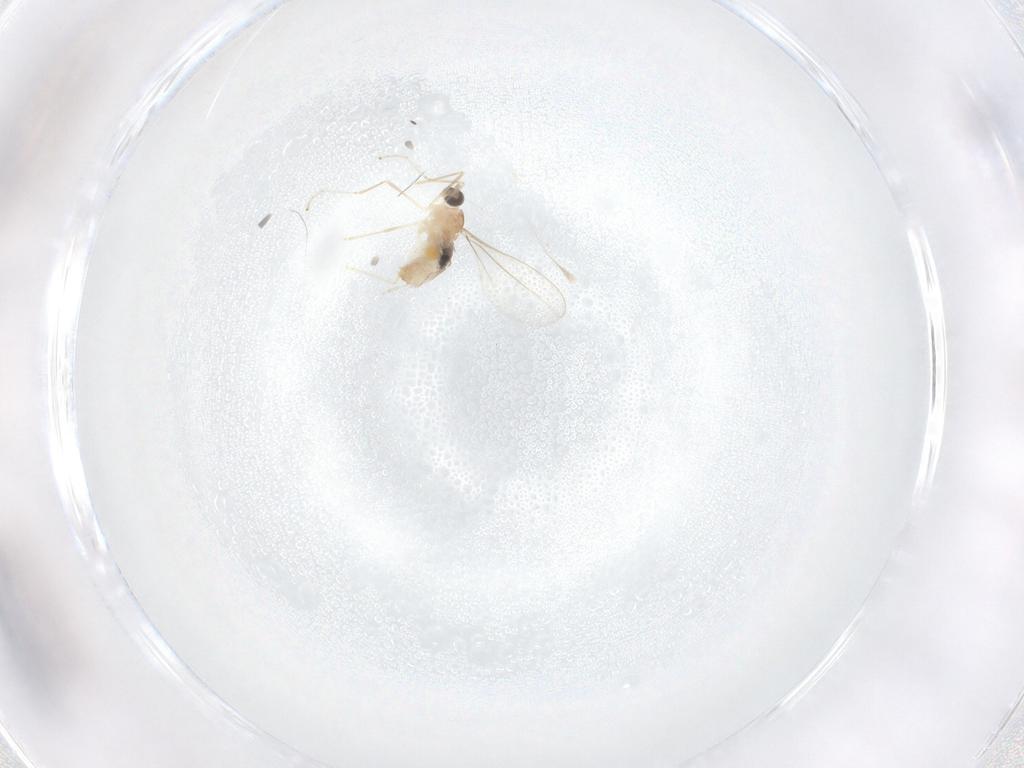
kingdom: Animalia
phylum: Arthropoda
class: Insecta
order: Diptera
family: Cecidomyiidae
